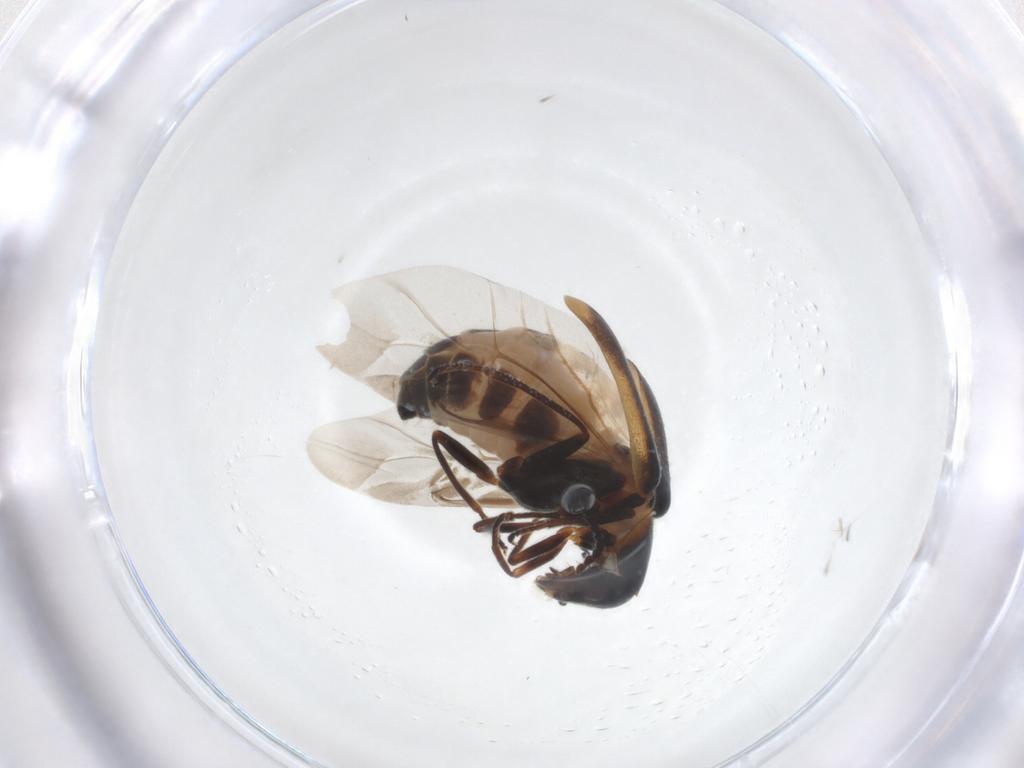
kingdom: Animalia
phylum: Arthropoda
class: Insecta
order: Coleoptera
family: Melyridae
